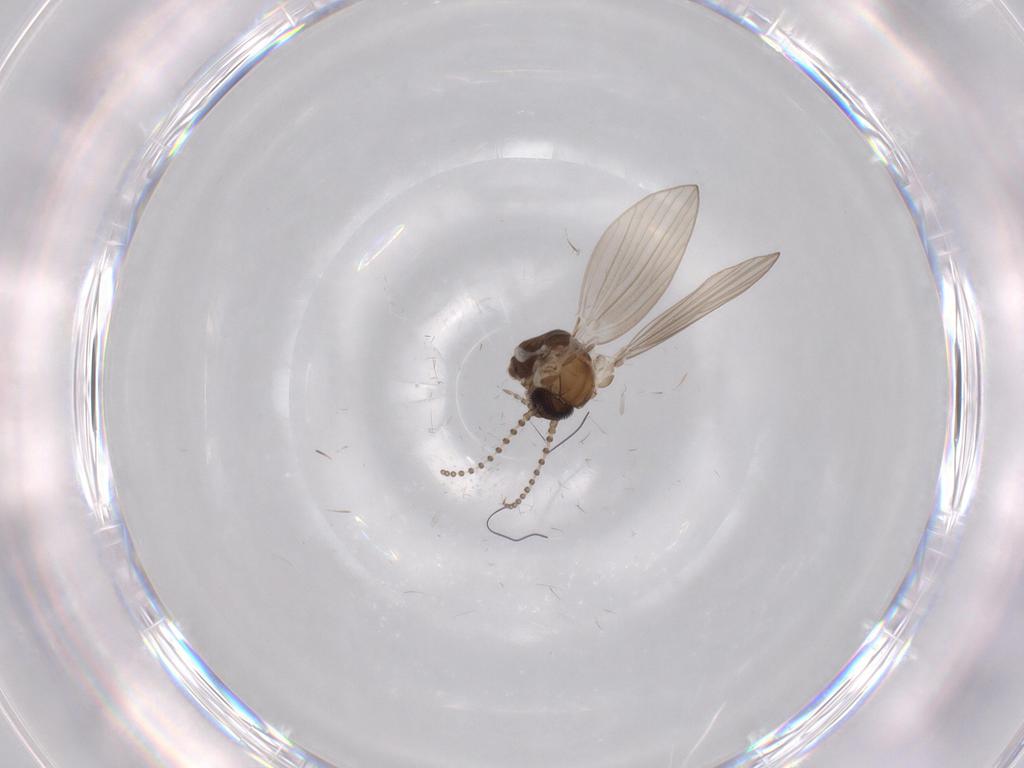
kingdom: Animalia
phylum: Arthropoda
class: Insecta
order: Diptera
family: Psychodidae
